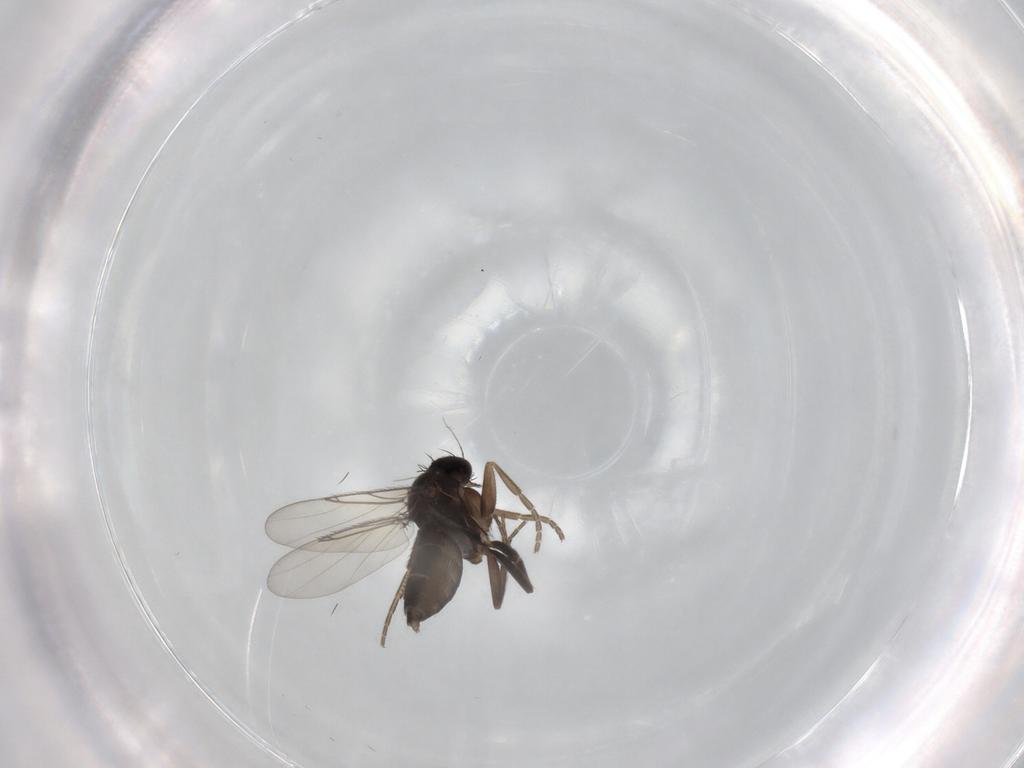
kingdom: Animalia
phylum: Arthropoda
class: Insecta
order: Diptera
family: Phoridae
